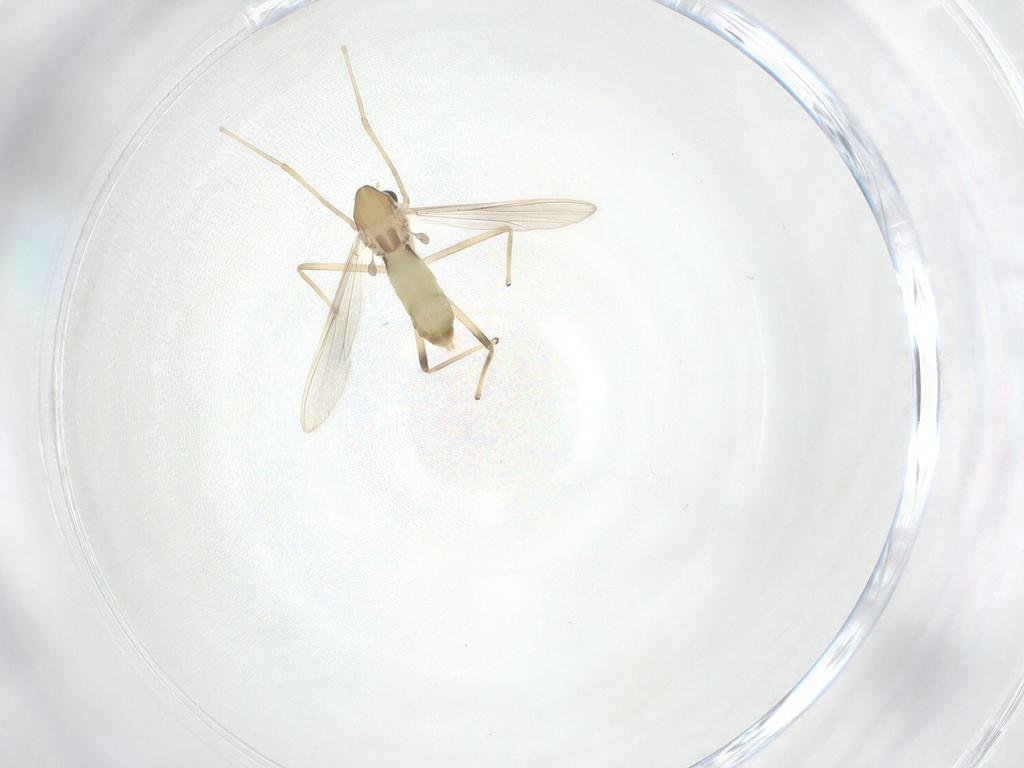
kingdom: Animalia
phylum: Arthropoda
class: Insecta
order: Diptera
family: Chironomidae
